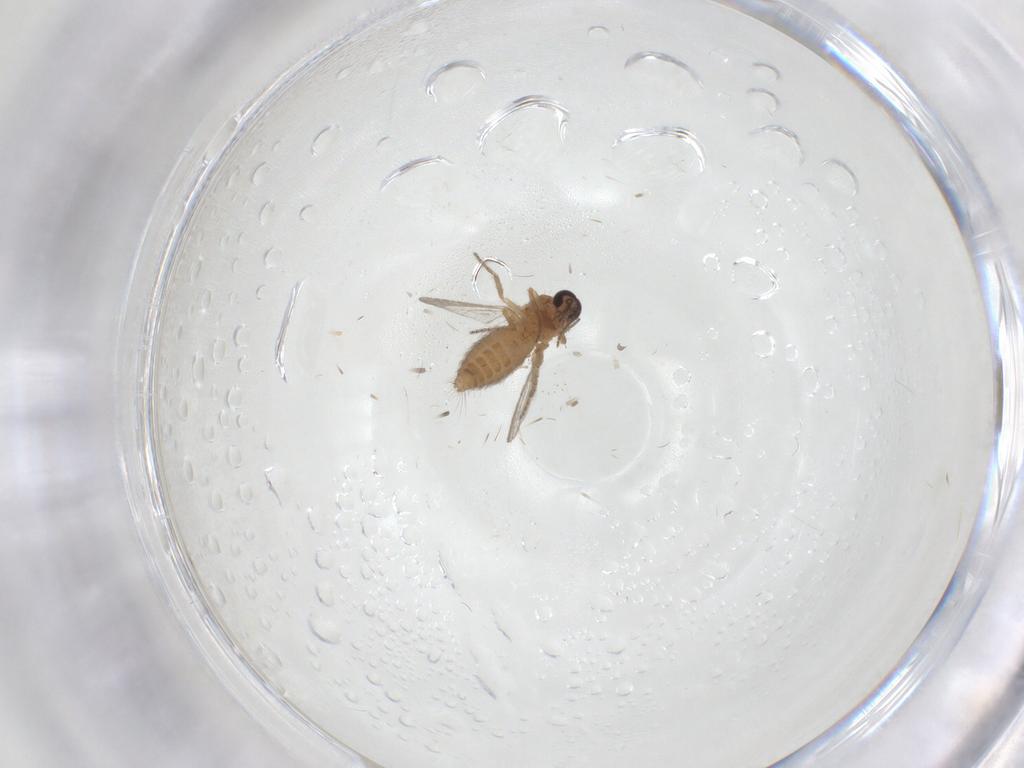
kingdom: Animalia
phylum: Arthropoda
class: Insecta
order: Diptera
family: Ceratopogonidae
